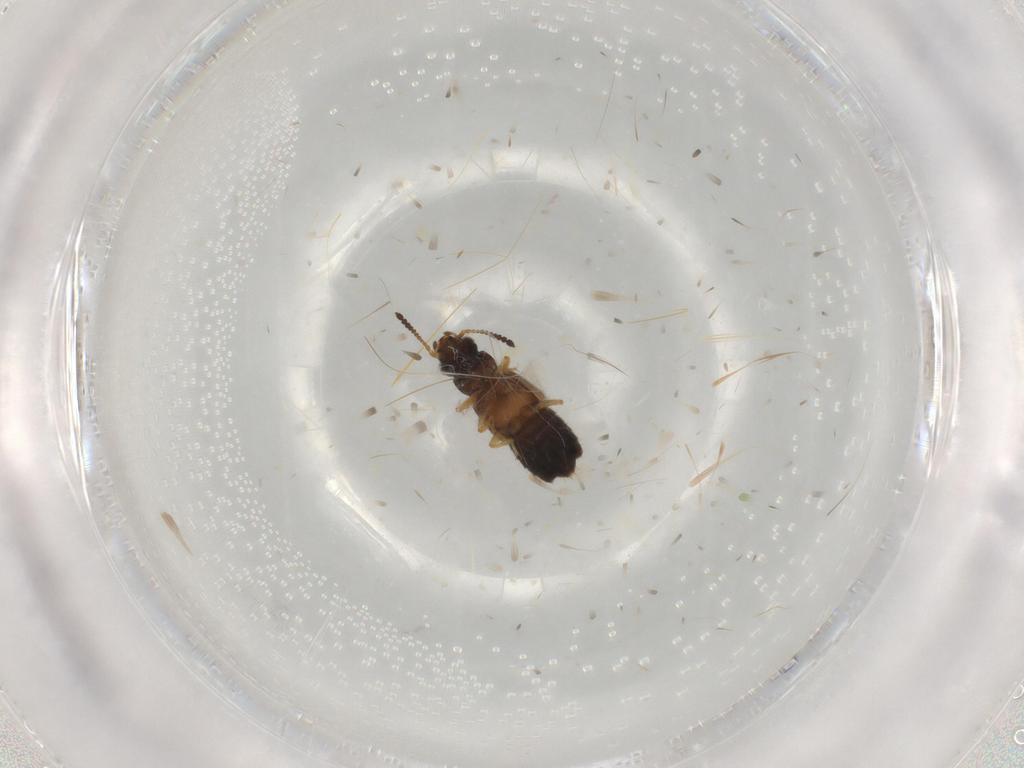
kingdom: Animalia
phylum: Arthropoda
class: Insecta
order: Coleoptera
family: Staphylinidae
